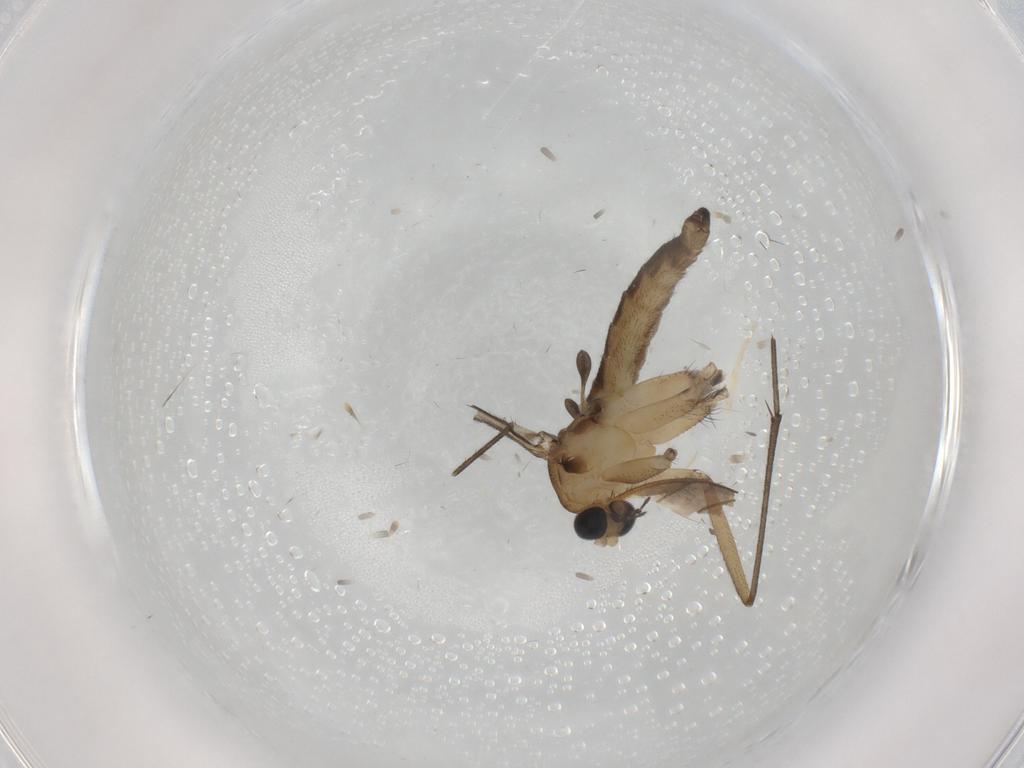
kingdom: Animalia
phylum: Arthropoda
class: Insecta
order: Diptera
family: Limoniidae
